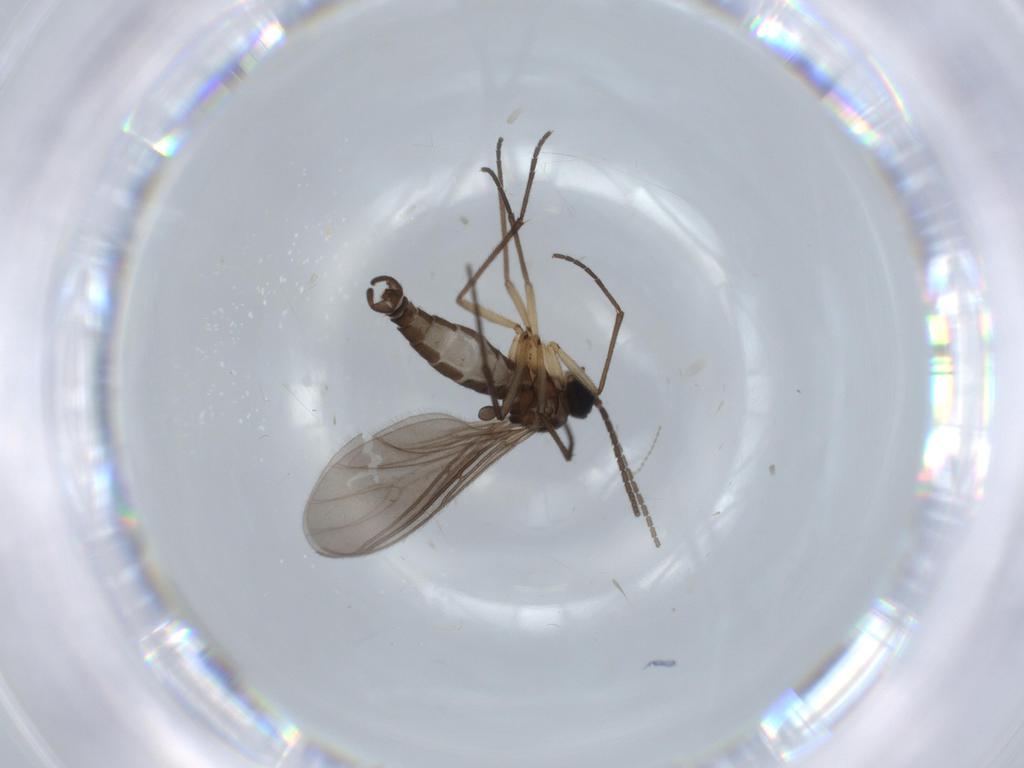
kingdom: Animalia
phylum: Arthropoda
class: Insecta
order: Diptera
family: Sciaridae
